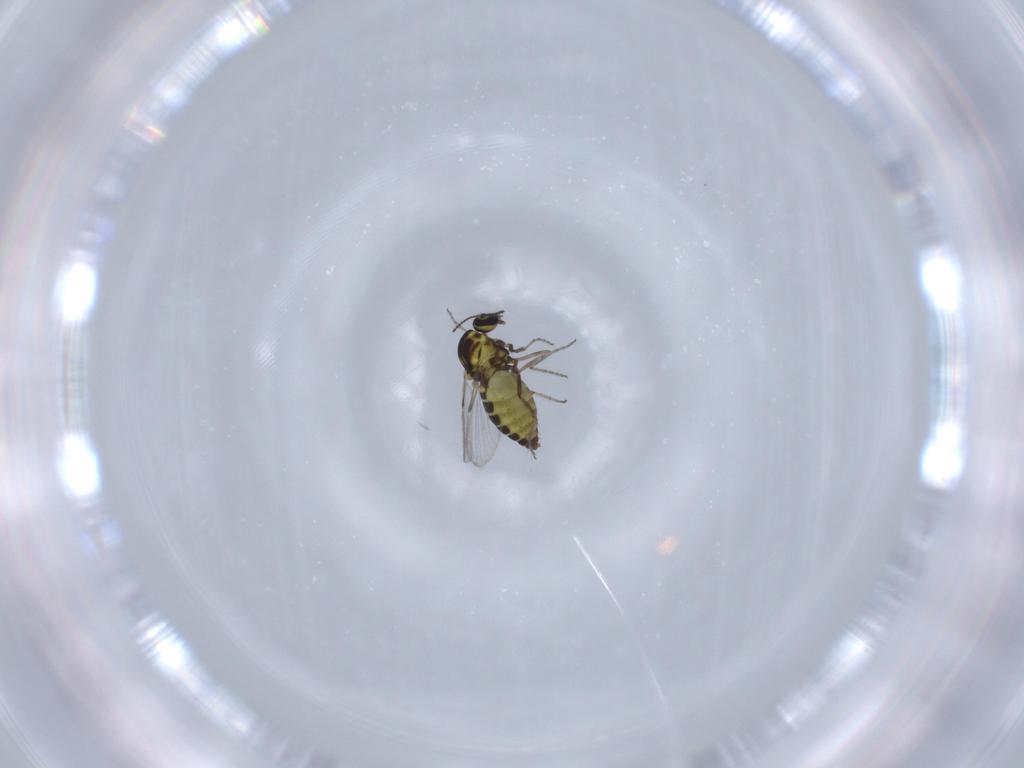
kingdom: Animalia
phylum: Arthropoda
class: Insecta
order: Diptera
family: Ceratopogonidae
